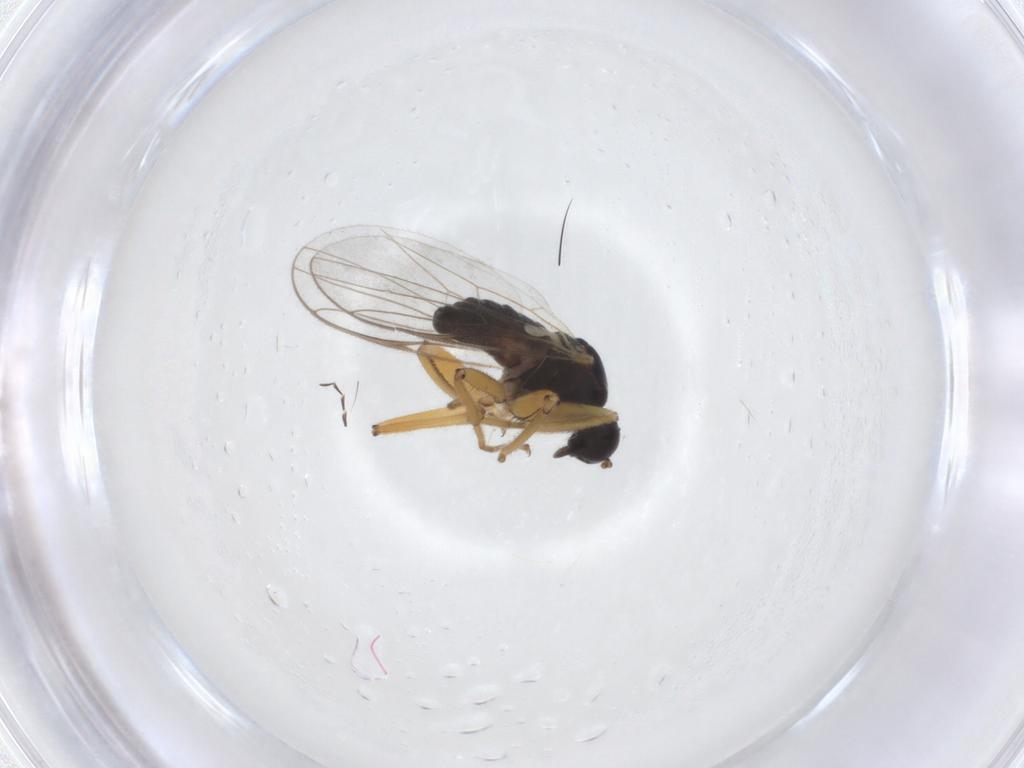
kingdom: Animalia
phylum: Arthropoda
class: Insecta
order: Diptera
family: Hybotidae
